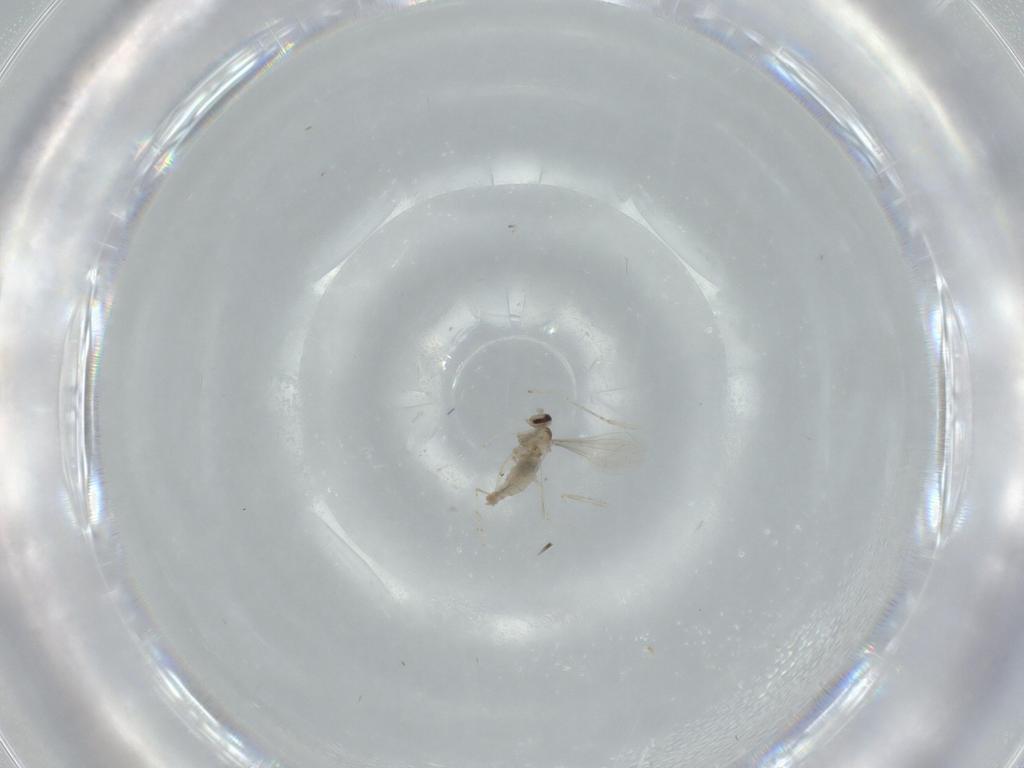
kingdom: Animalia
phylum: Arthropoda
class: Insecta
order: Diptera
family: Cecidomyiidae
